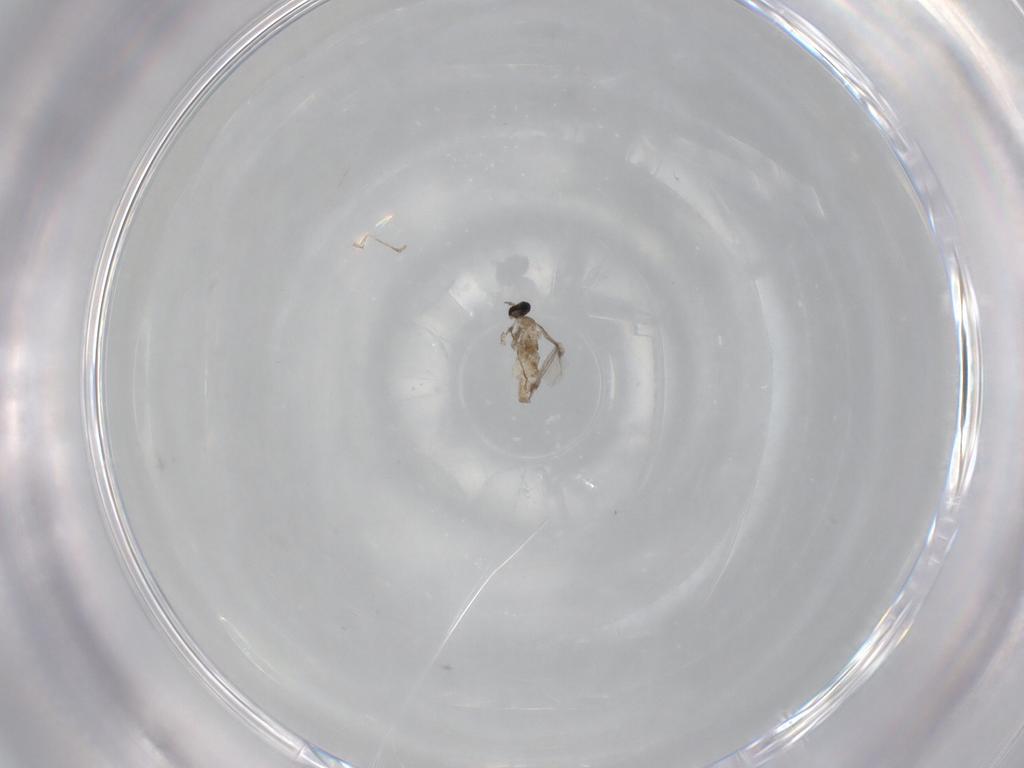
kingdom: Animalia
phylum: Arthropoda
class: Insecta
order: Diptera
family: Cecidomyiidae
